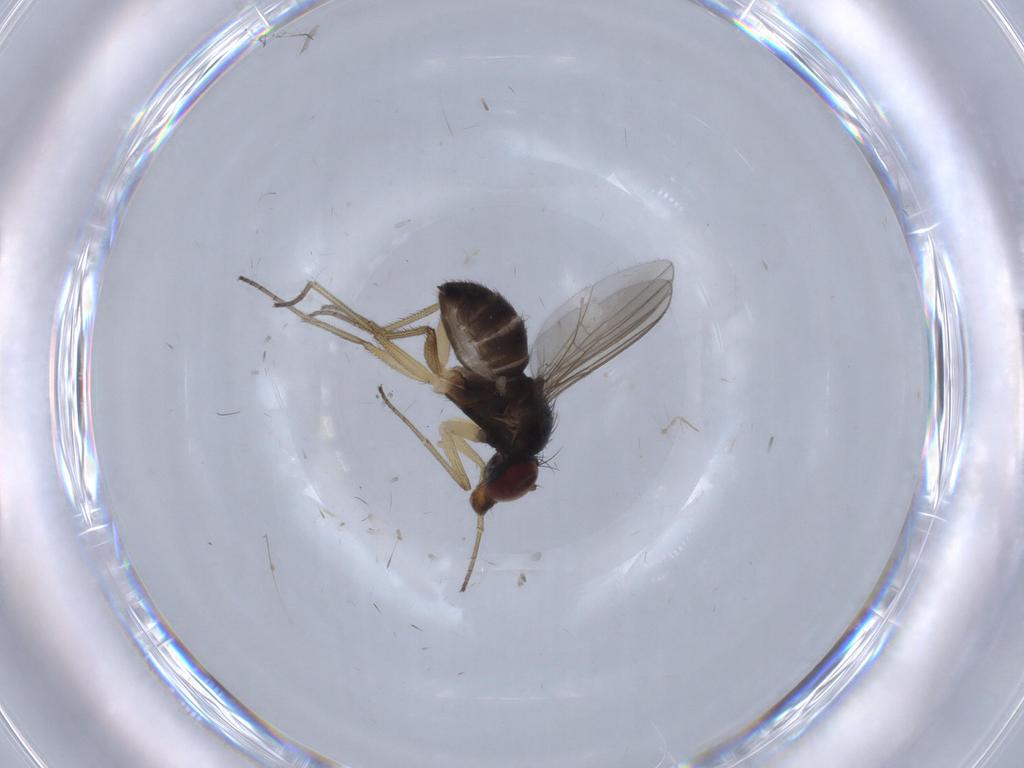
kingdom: Animalia
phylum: Arthropoda
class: Insecta
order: Diptera
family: Dolichopodidae
